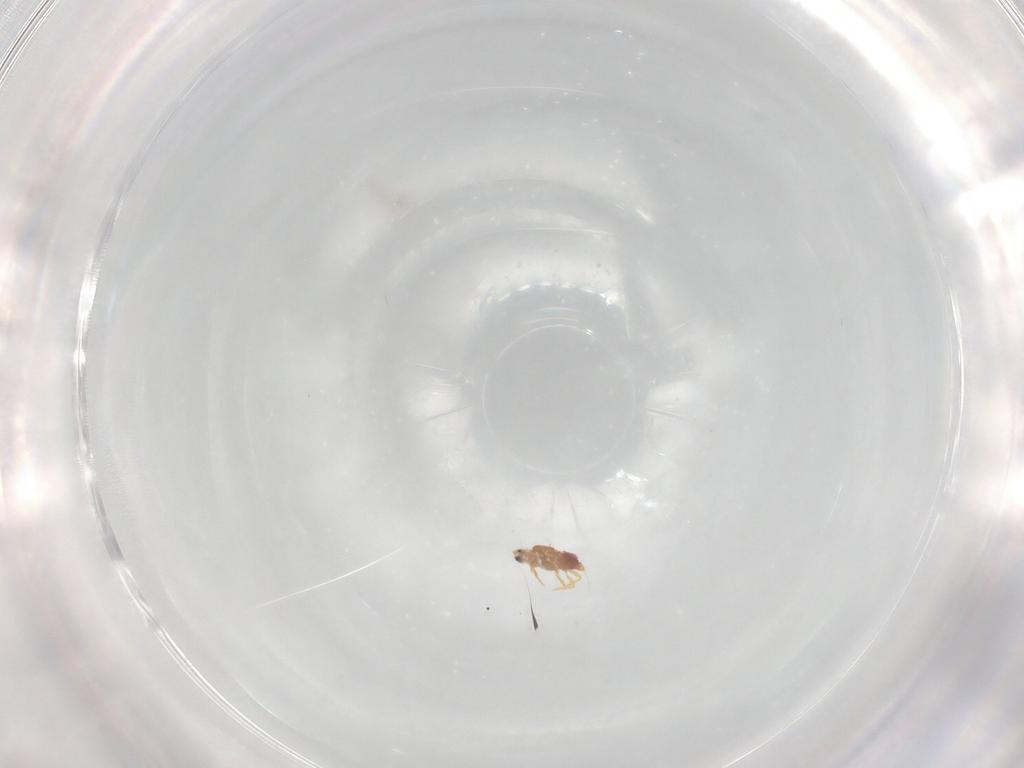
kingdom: Animalia
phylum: Arthropoda
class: Insecta
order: Hemiptera
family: Diaspididae
